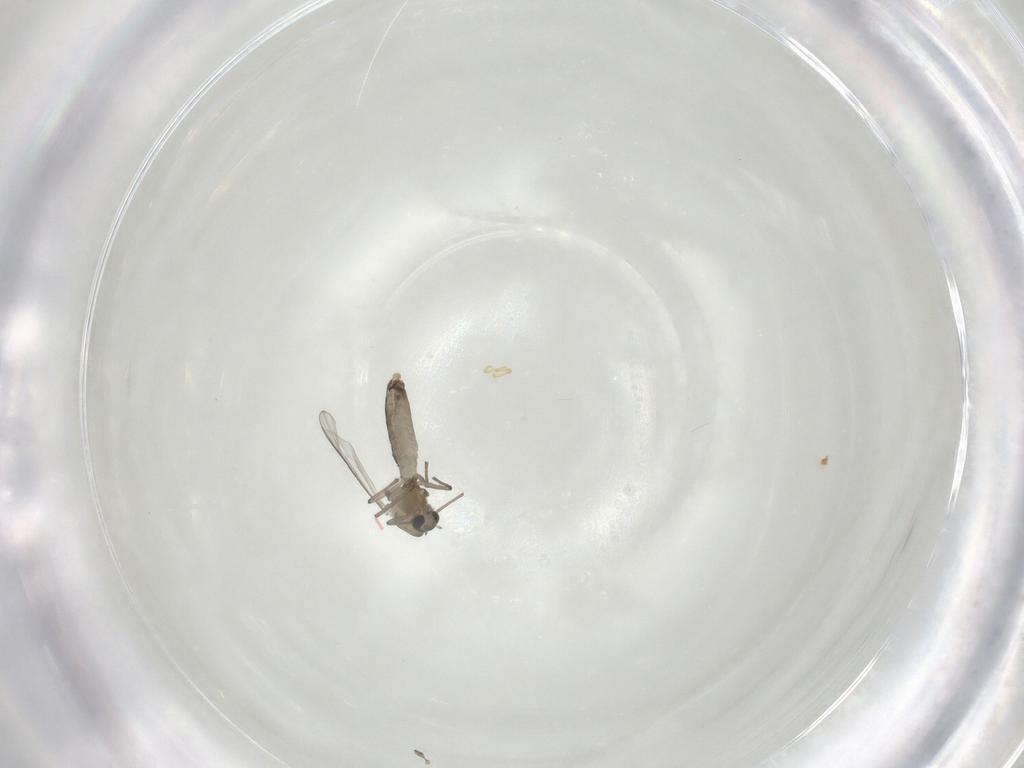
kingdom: Animalia
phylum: Arthropoda
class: Insecta
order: Diptera
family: Chironomidae
